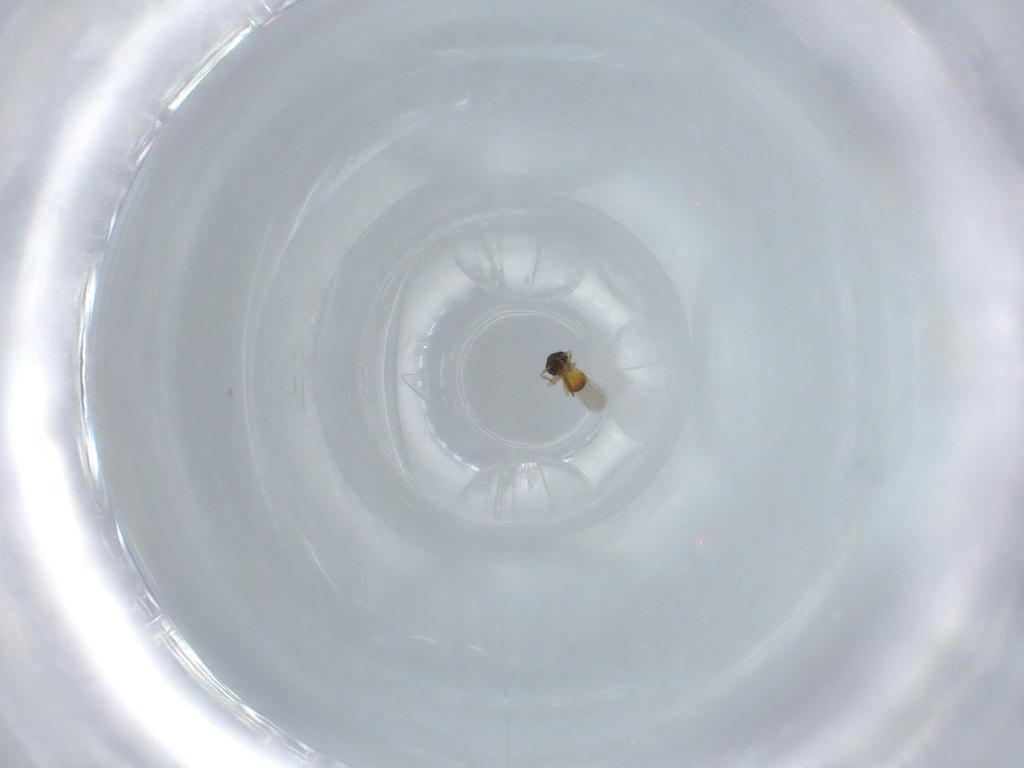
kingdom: Animalia
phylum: Arthropoda
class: Insecta
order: Hymenoptera
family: Scelionidae
